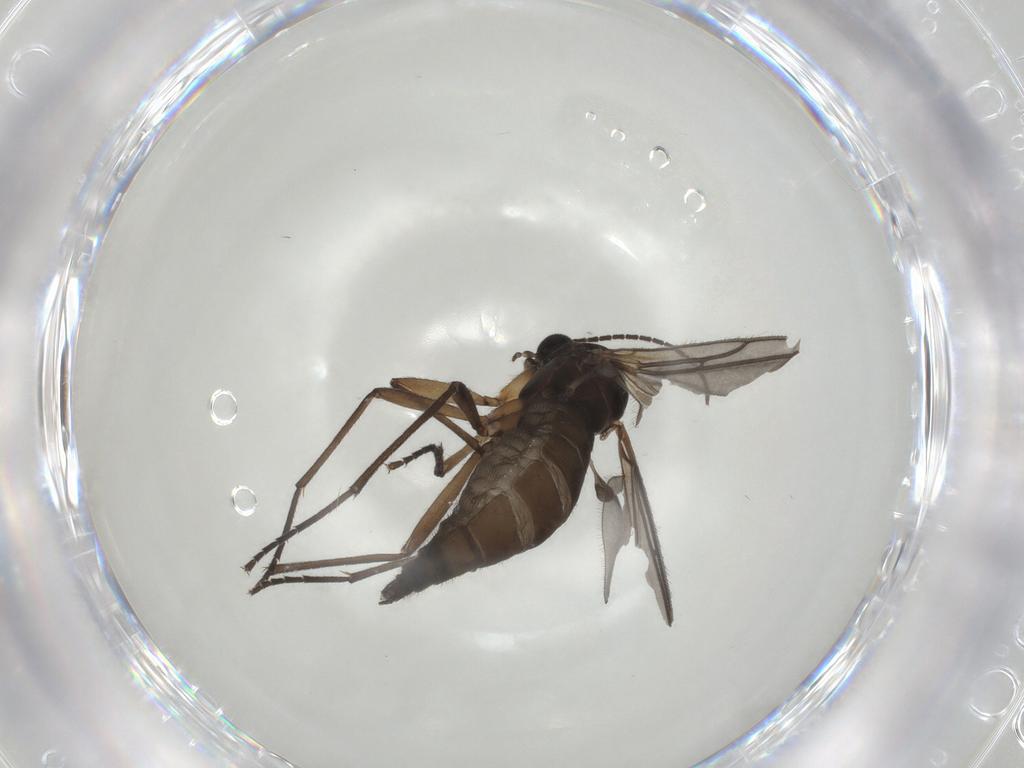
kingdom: Animalia
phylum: Arthropoda
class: Insecta
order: Diptera
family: Sciaridae
